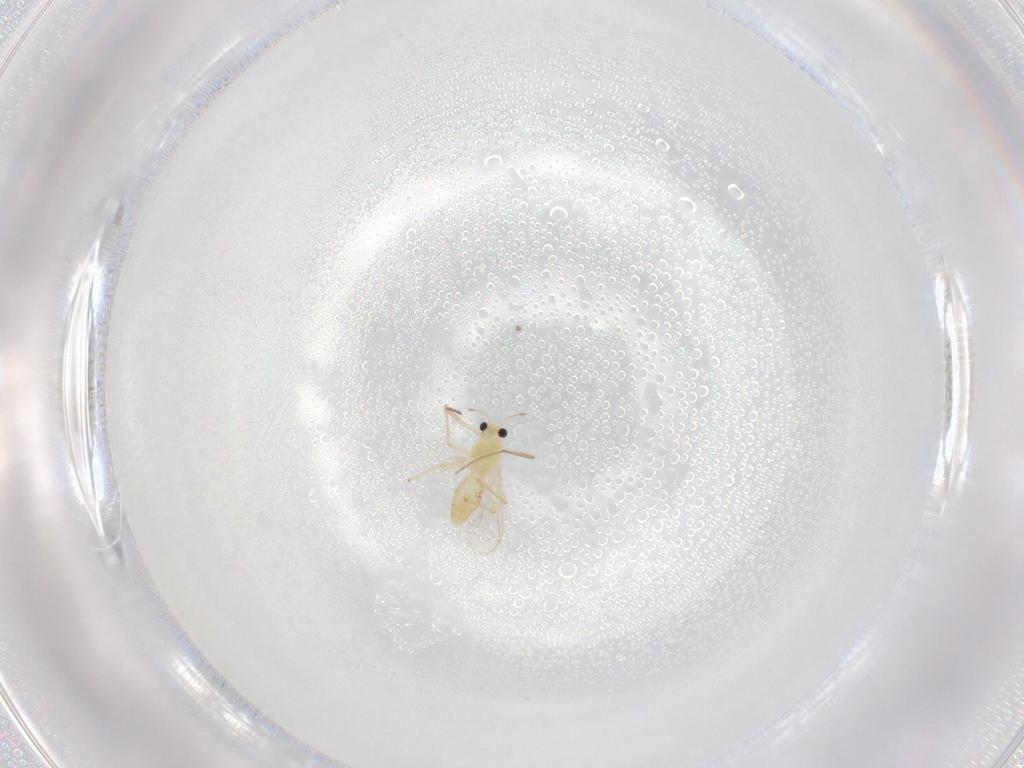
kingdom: Animalia
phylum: Arthropoda
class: Insecta
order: Diptera
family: Chironomidae
